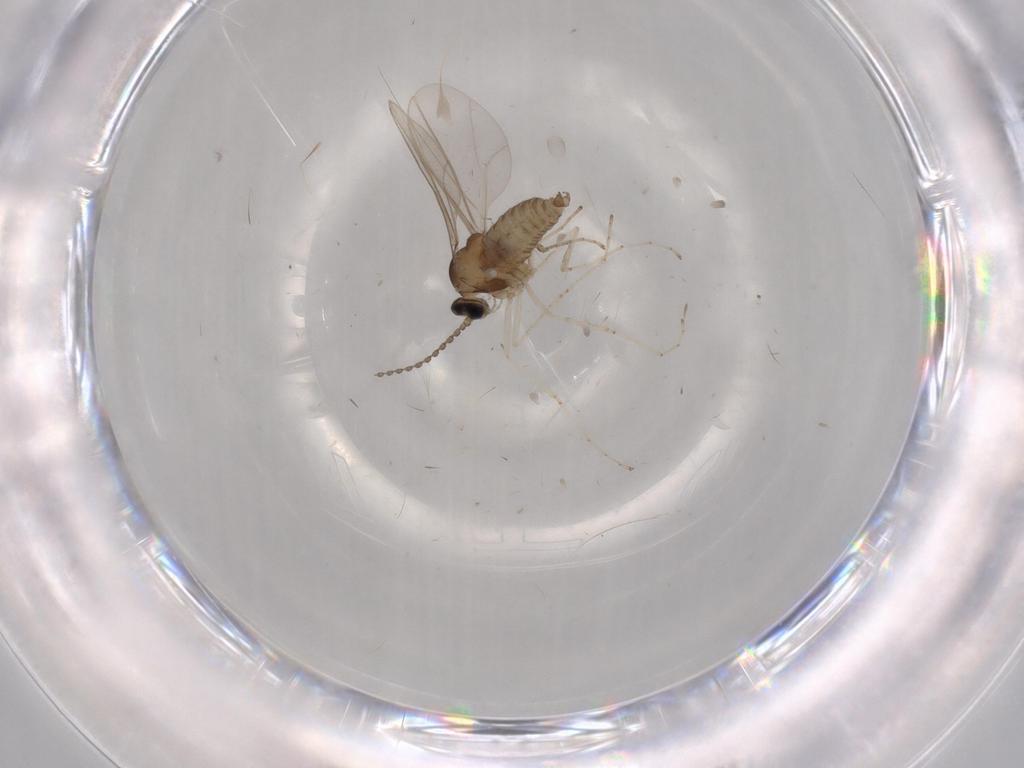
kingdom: Animalia
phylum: Arthropoda
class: Insecta
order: Diptera
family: Cecidomyiidae
